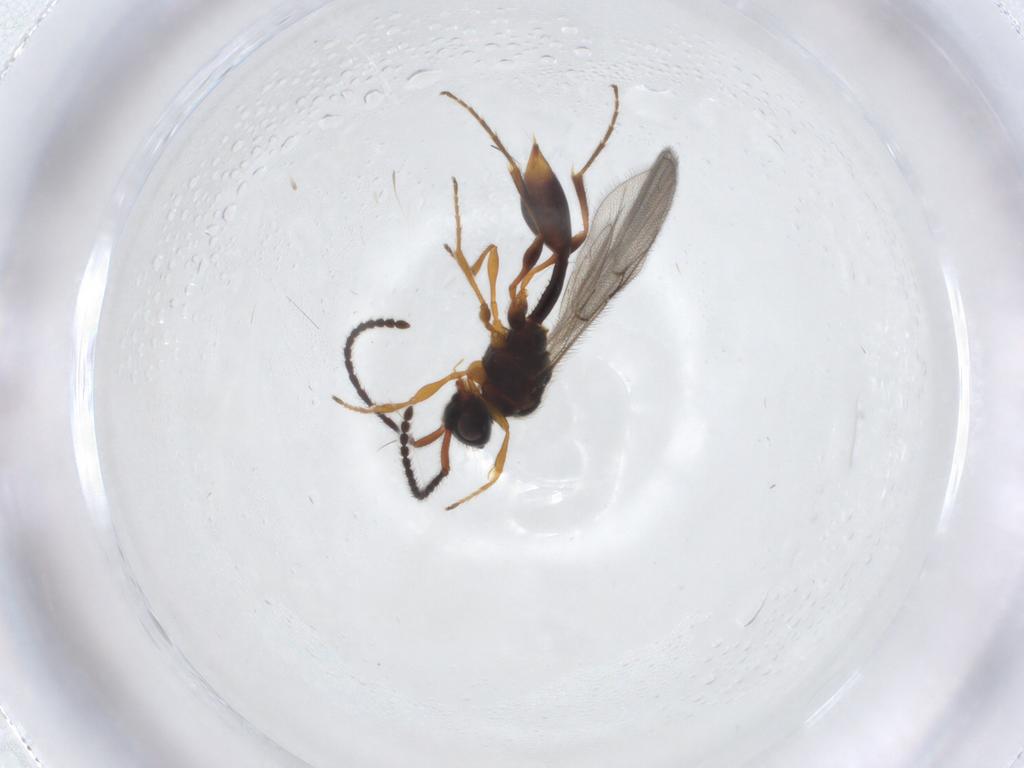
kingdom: Animalia
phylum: Arthropoda
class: Insecta
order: Hymenoptera
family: Diapriidae
